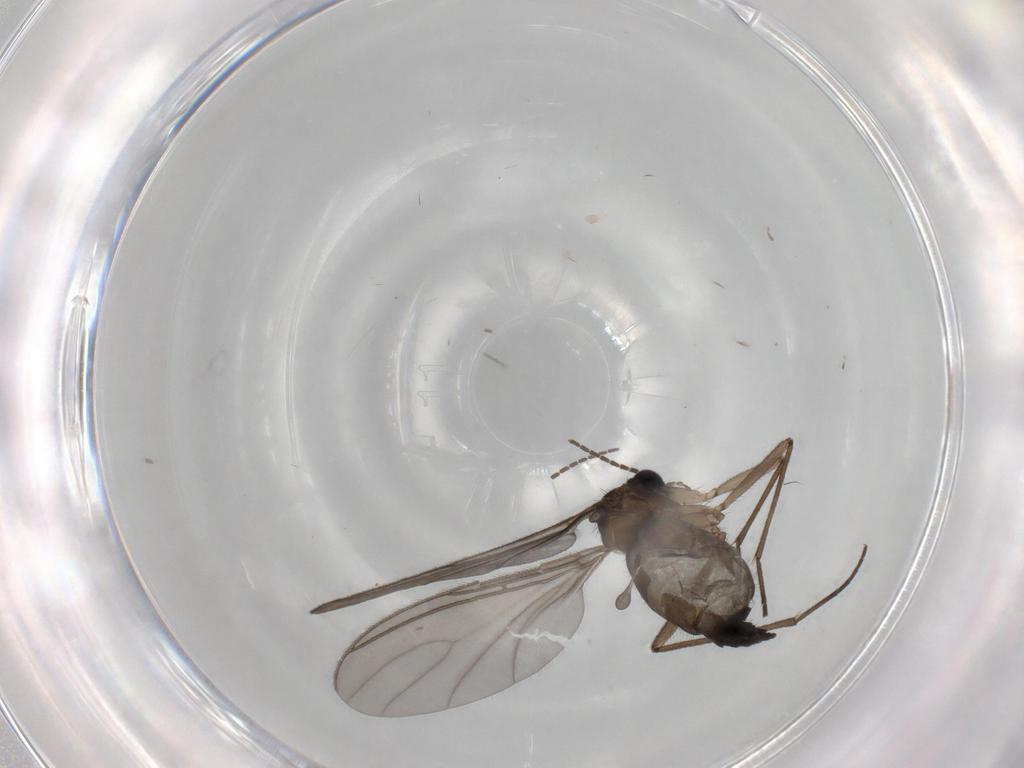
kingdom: Animalia
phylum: Arthropoda
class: Insecta
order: Diptera
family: Sciaridae
